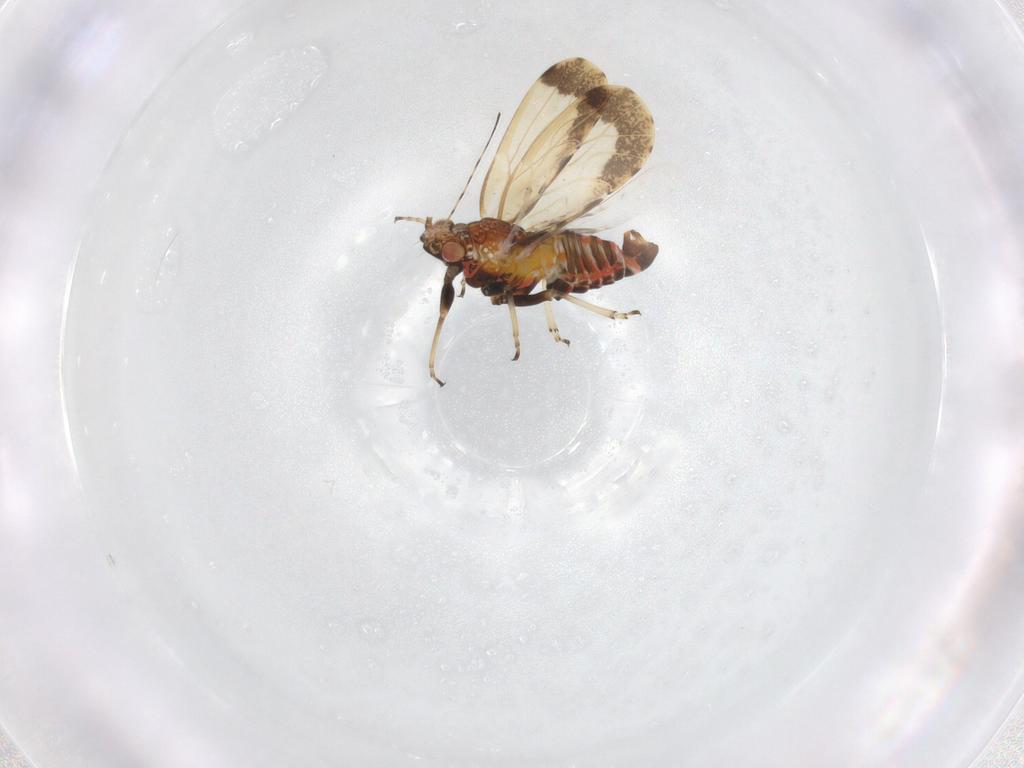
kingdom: Animalia
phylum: Arthropoda
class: Insecta
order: Hemiptera
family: Psyllidae
